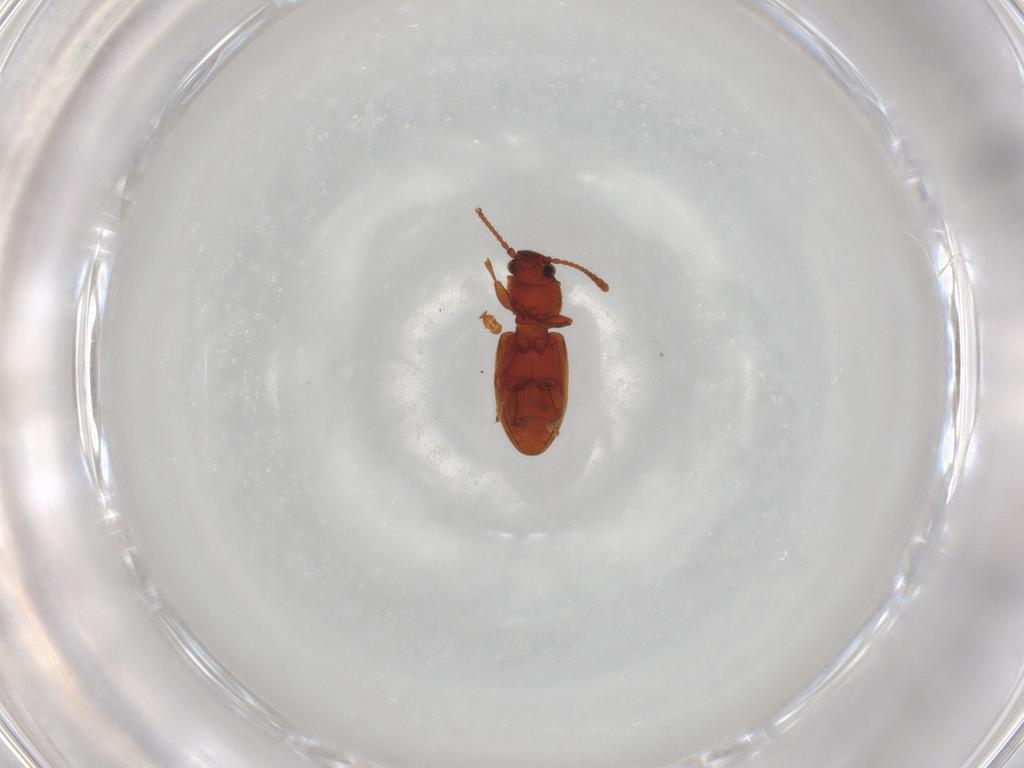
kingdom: Animalia
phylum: Arthropoda
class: Insecta
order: Coleoptera
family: Silvanidae
